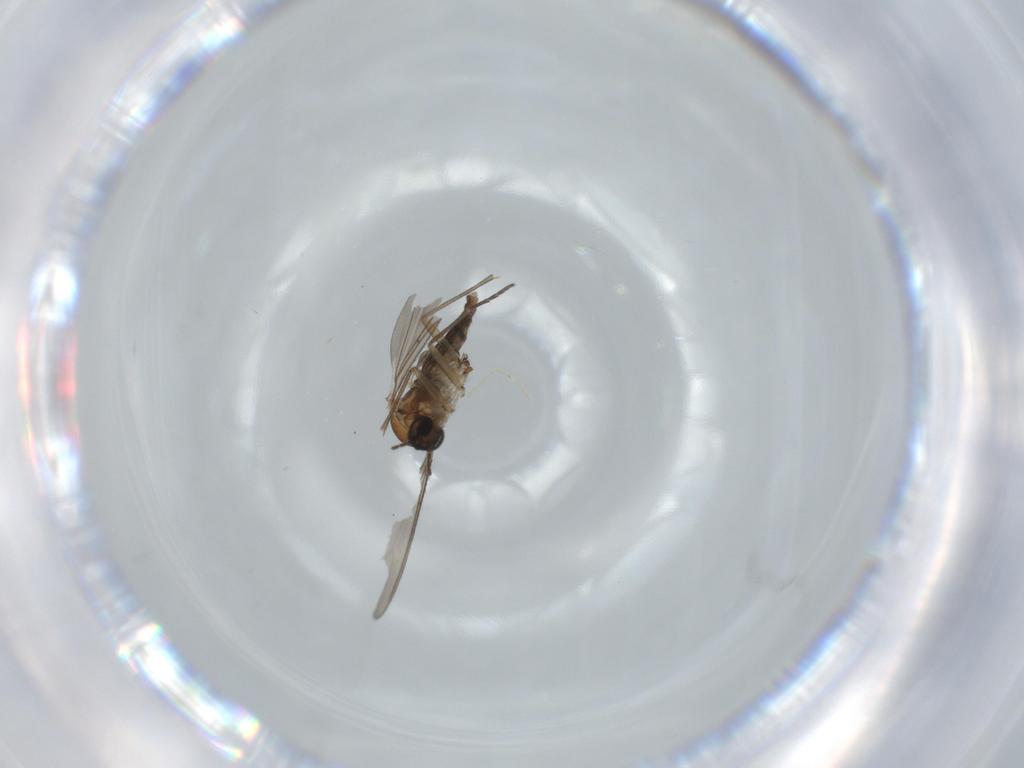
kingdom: Animalia
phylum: Arthropoda
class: Insecta
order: Diptera
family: Sciaridae
